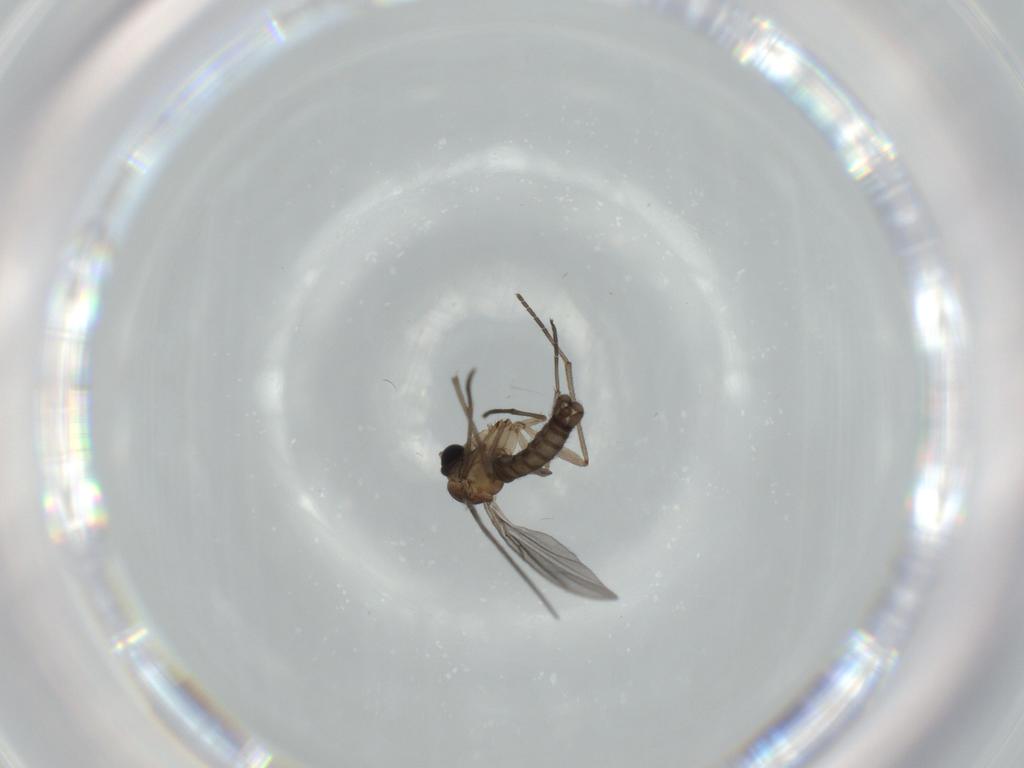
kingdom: Animalia
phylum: Arthropoda
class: Insecta
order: Diptera
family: Sciaridae
